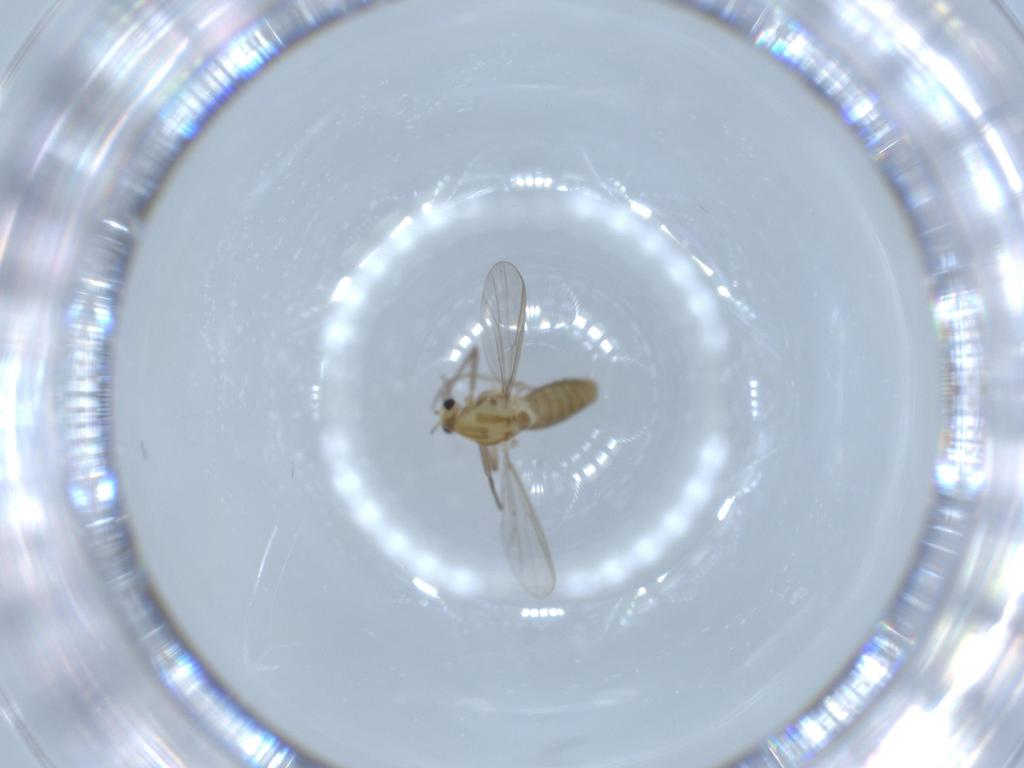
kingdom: Animalia
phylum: Arthropoda
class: Insecta
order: Diptera
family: Chironomidae
